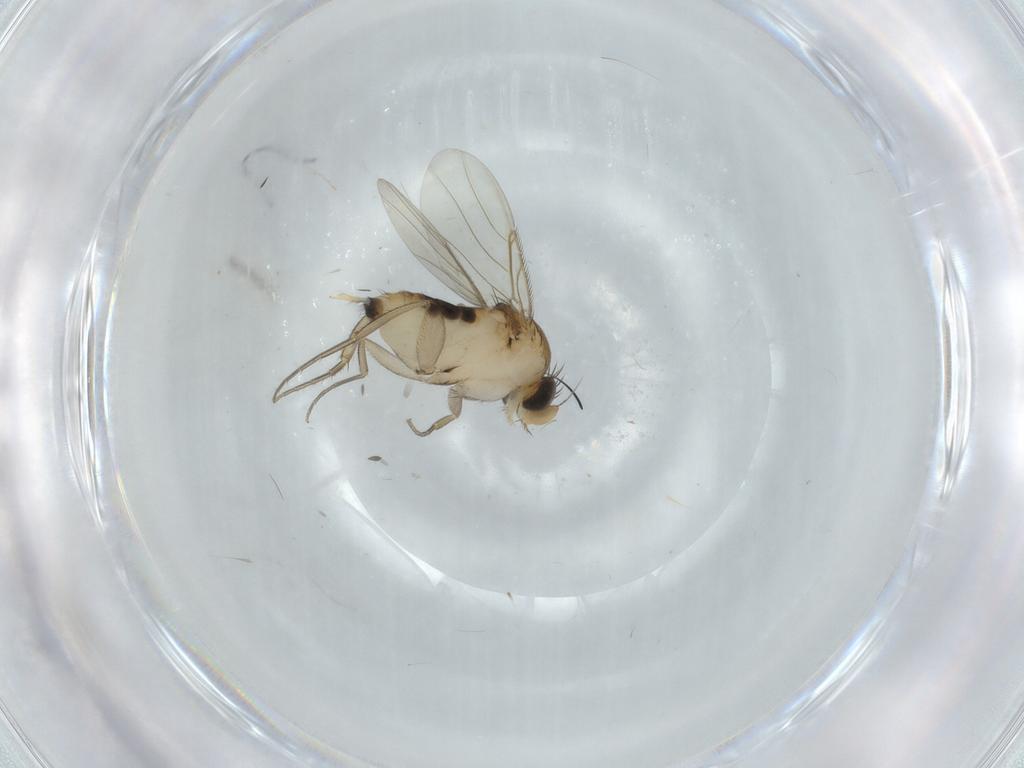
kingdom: Animalia
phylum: Arthropoda
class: Insecta
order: Diptera
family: Phoridae
